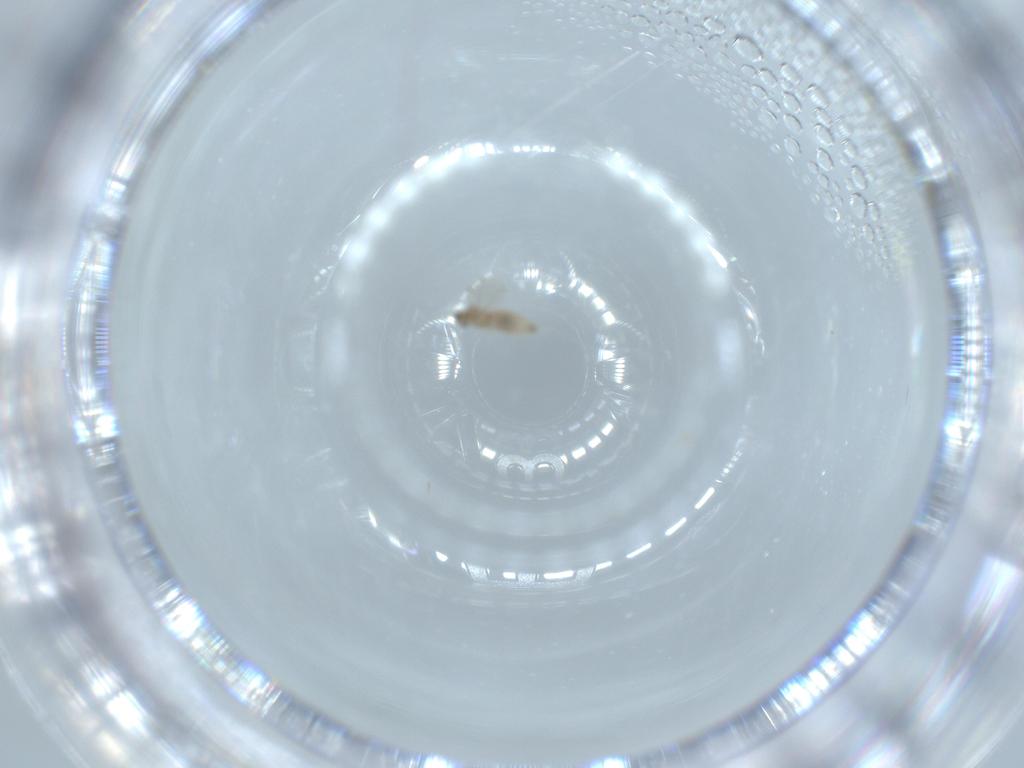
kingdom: Animalia
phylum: Arthropoda
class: Insecta
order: Diptera
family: Cecidomyiidae
